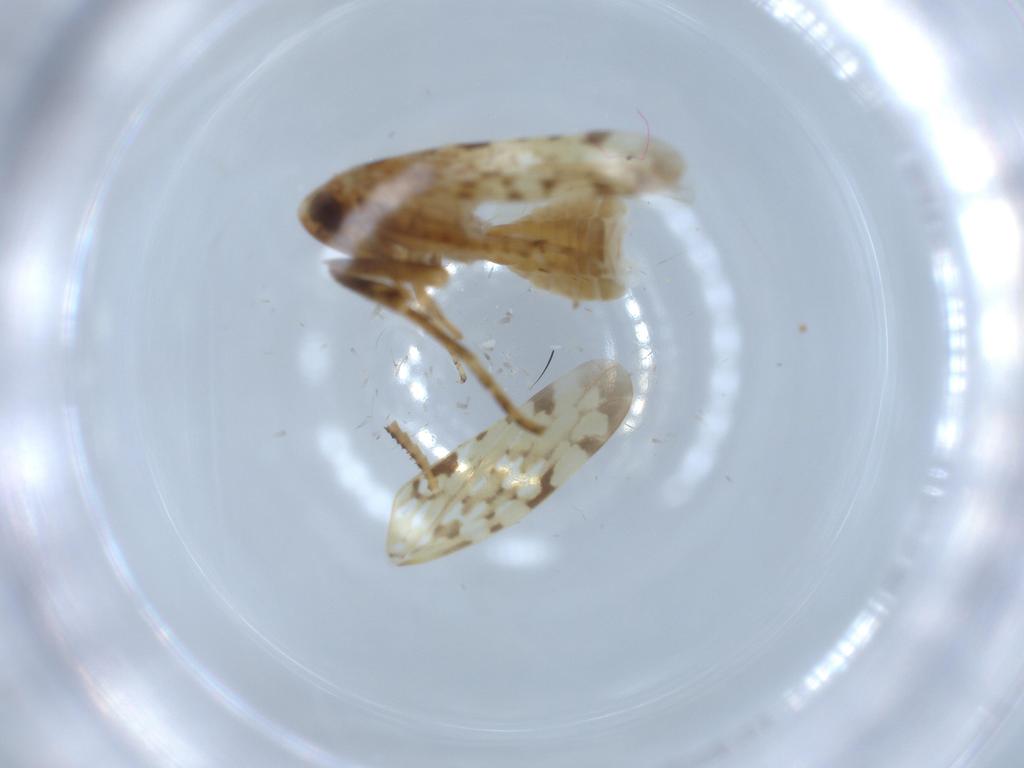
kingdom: Animalia
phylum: Arthropoda
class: Insecta
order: Hemiptera
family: Cicadellidae
